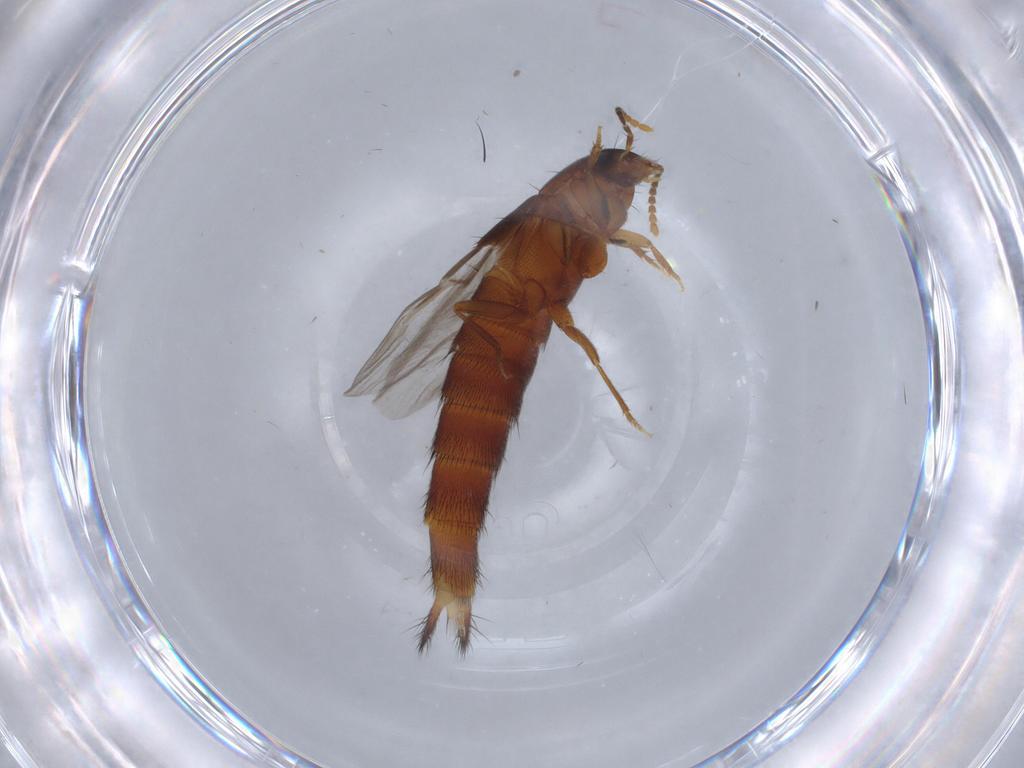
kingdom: Animalia
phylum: Arthropoda
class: Insecta
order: Coleoptera
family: Staphylinidae
